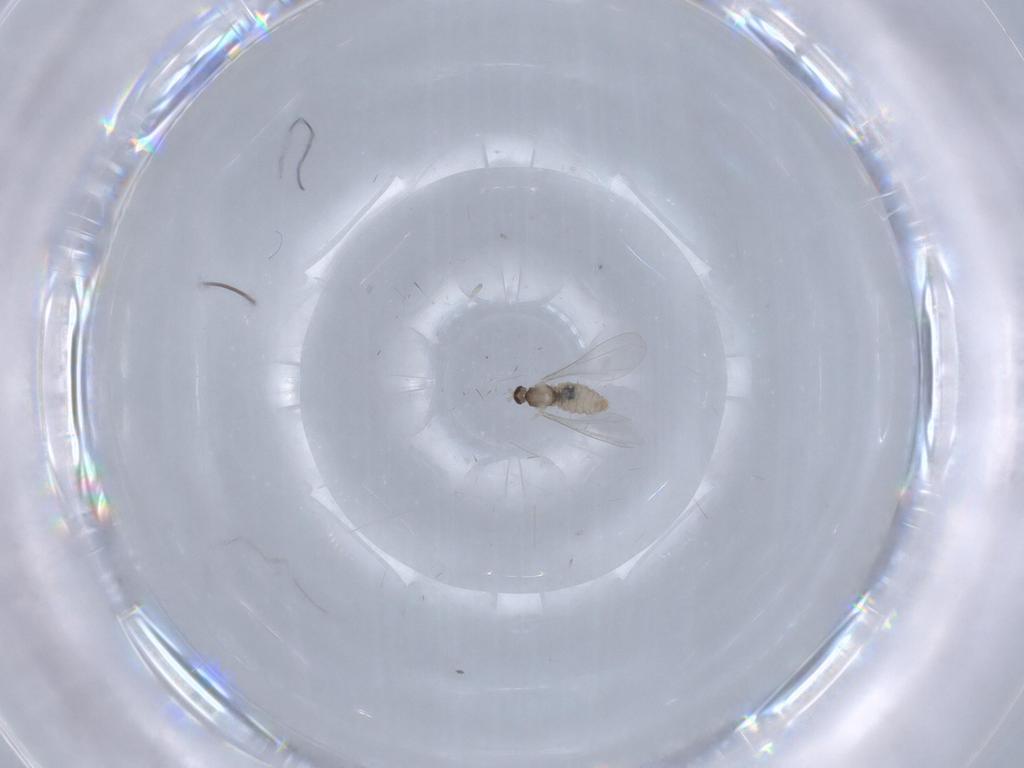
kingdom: Animalia
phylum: Arthropoda
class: Insecta
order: Diptera
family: Cecidomyiidae
